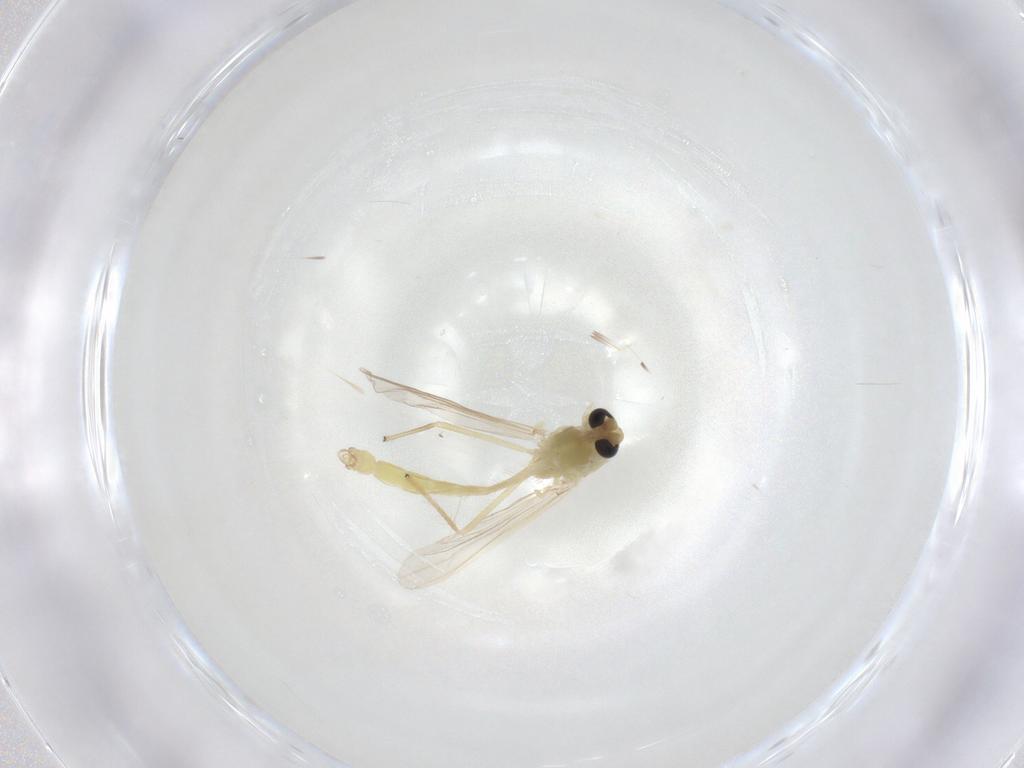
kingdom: Animalia
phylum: Arthropoda
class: Insecta
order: Diptera
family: Chironomidae
